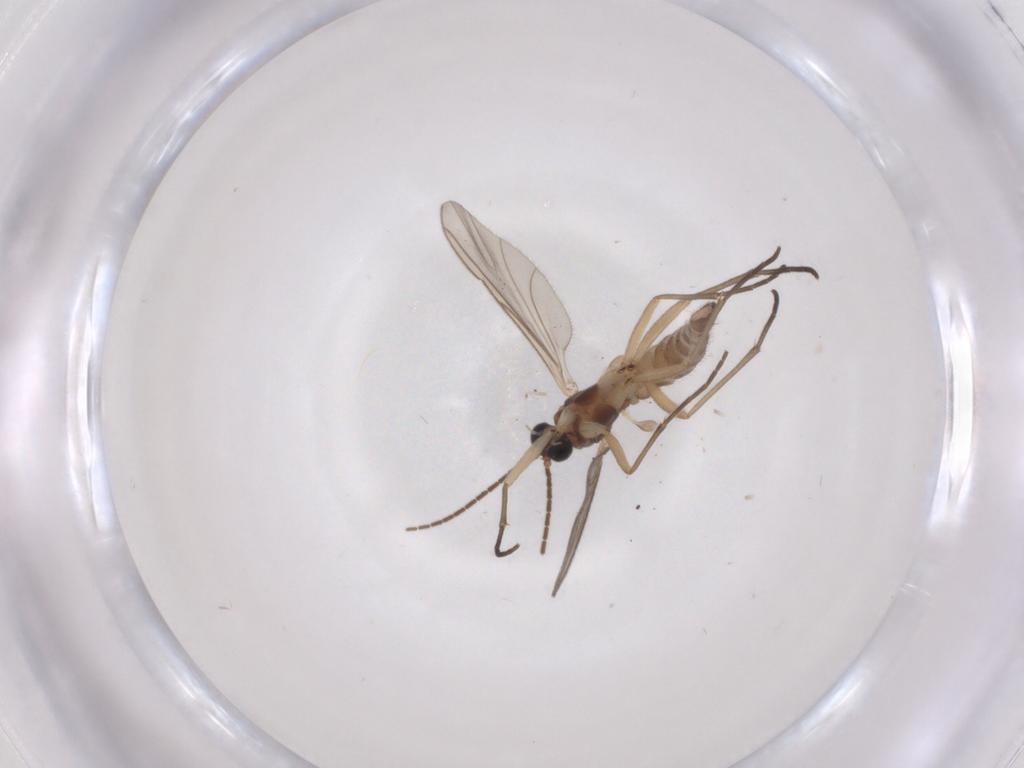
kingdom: Animalia
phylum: Arthropoda
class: Insecta
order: Diptera
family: Sciaridae
